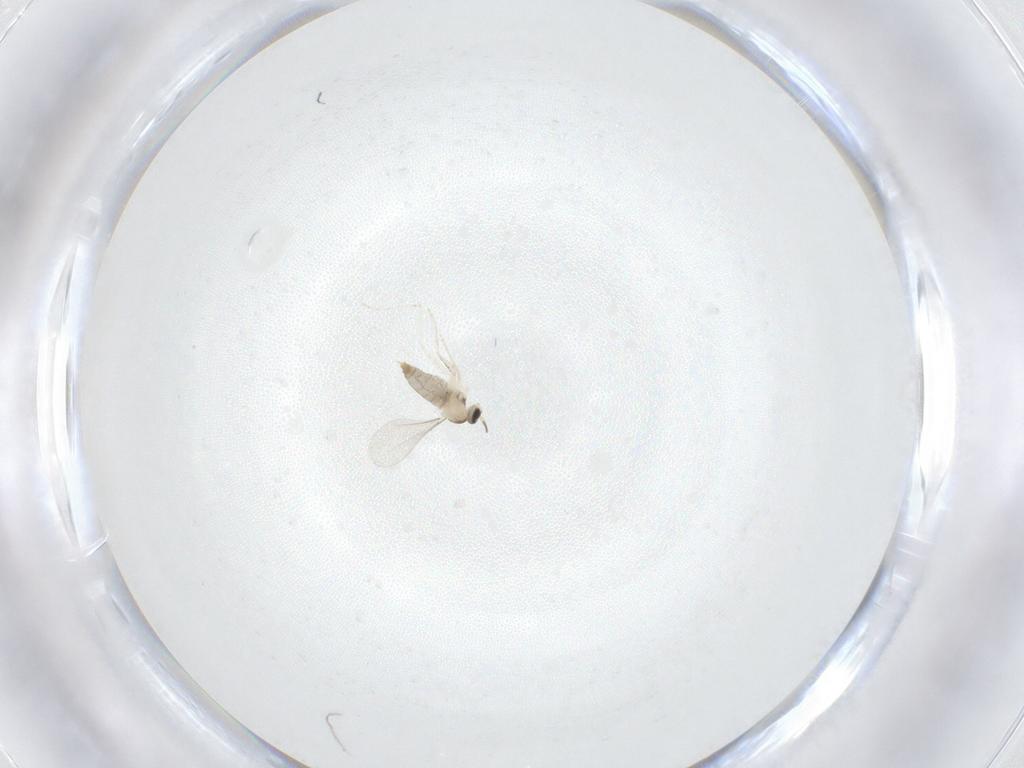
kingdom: Animalia
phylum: Arthropoda
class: Insecta
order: Diptera
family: Cecidomyiidae
